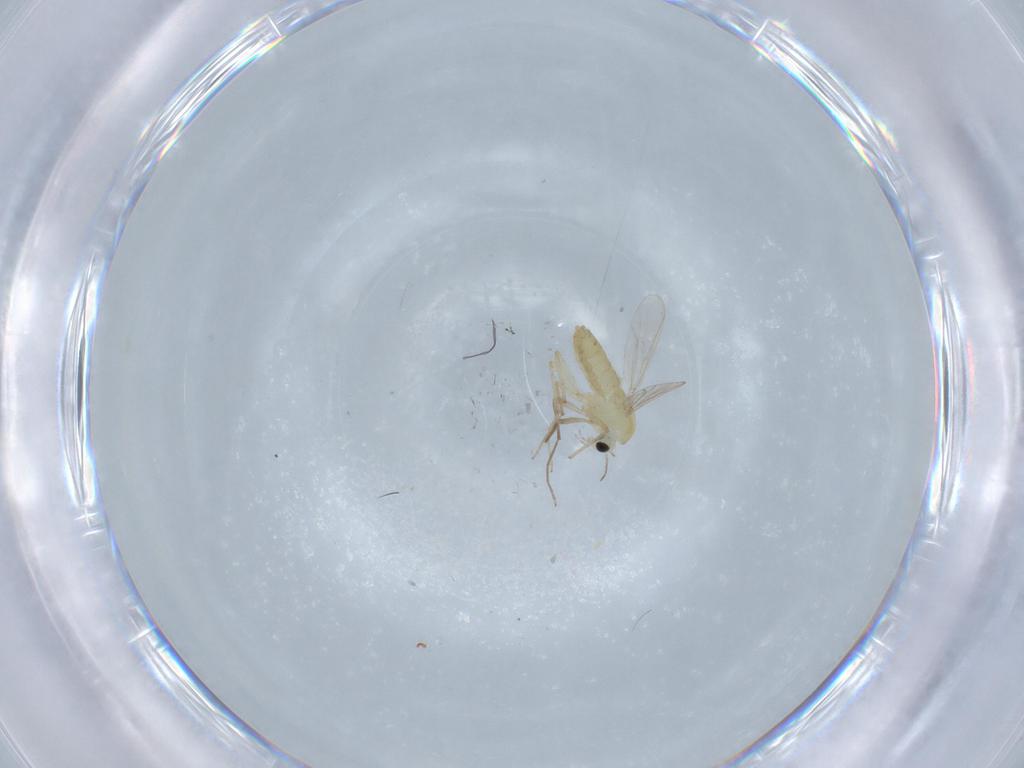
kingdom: Animalia
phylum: Arthropoda
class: Insecta
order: Diptera
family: Chironomidae
